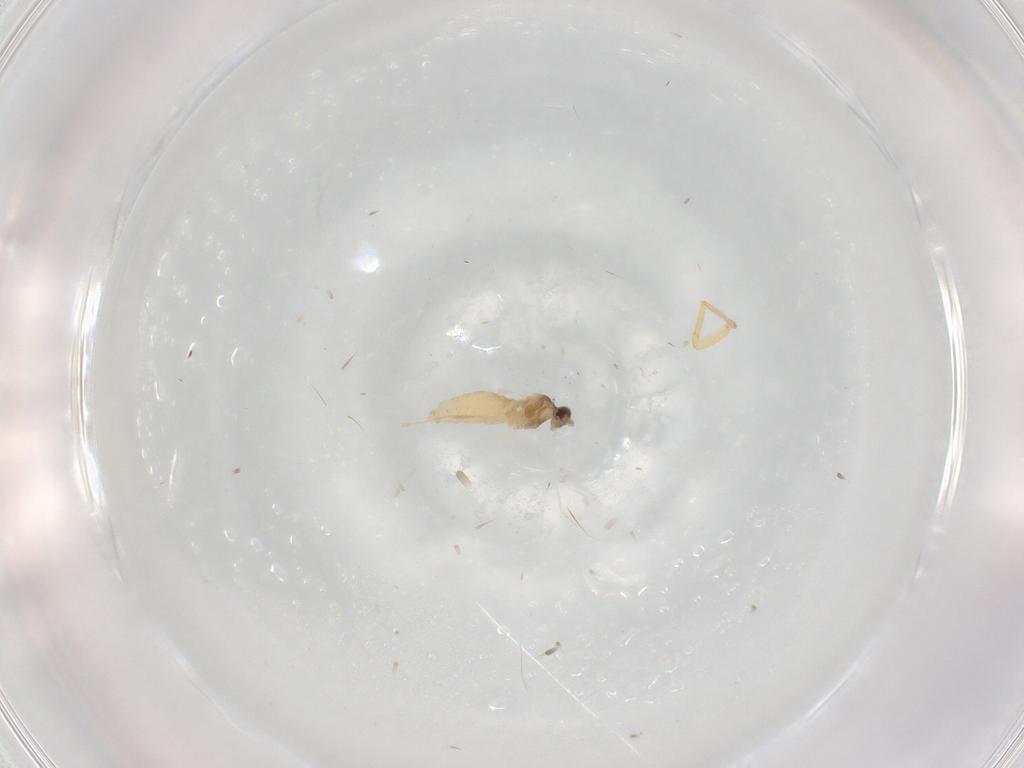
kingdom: Animalia
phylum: Arthropoda
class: Insecta
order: Diptera
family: Cecidomyiidae
